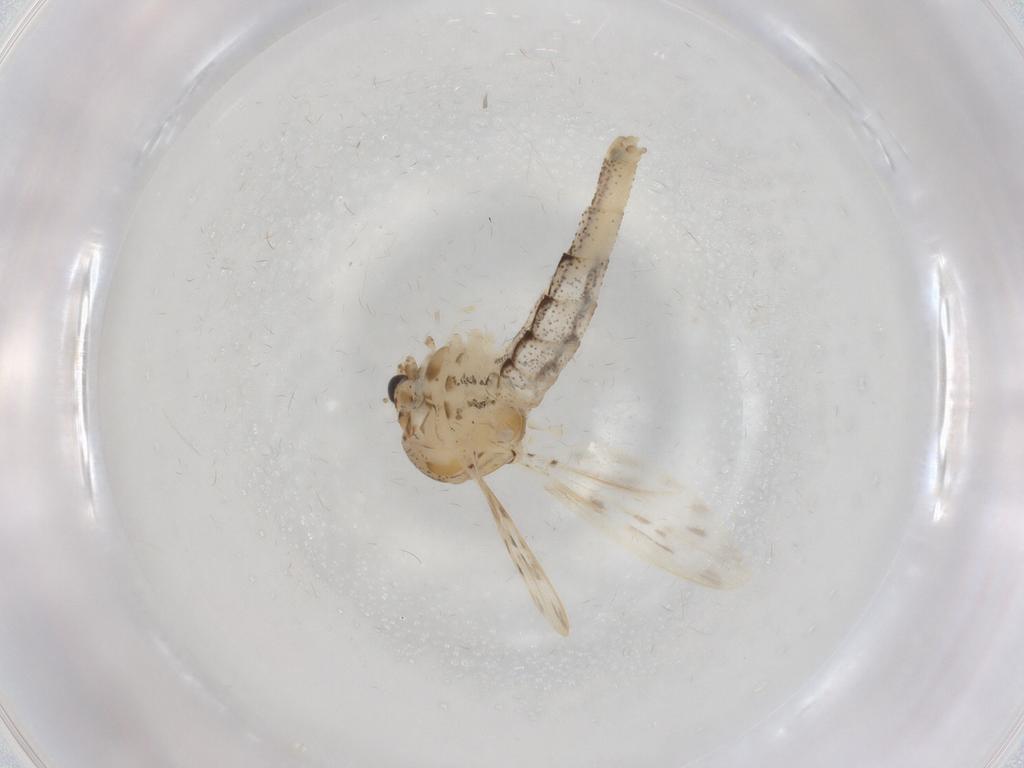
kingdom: Animalia
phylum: Arthropoda
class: Insecta
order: Diptera
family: Chaoboridae
